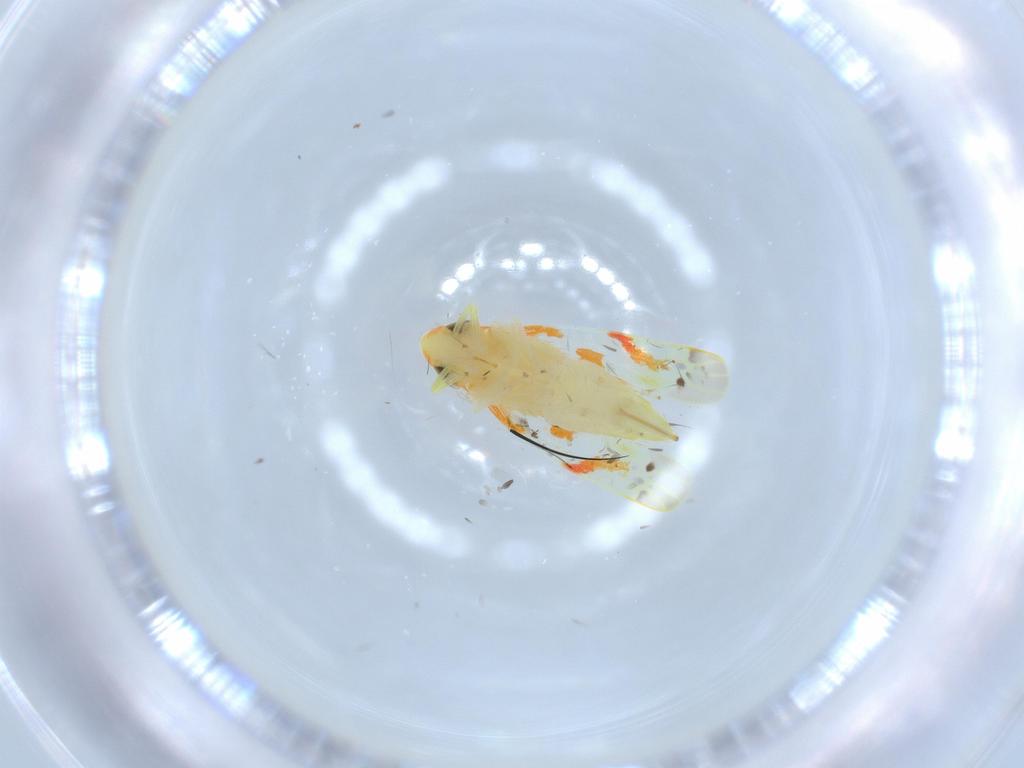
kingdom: Animalia
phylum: Arthropoda
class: Insecta
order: Hemiptera
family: Cicadellidae
